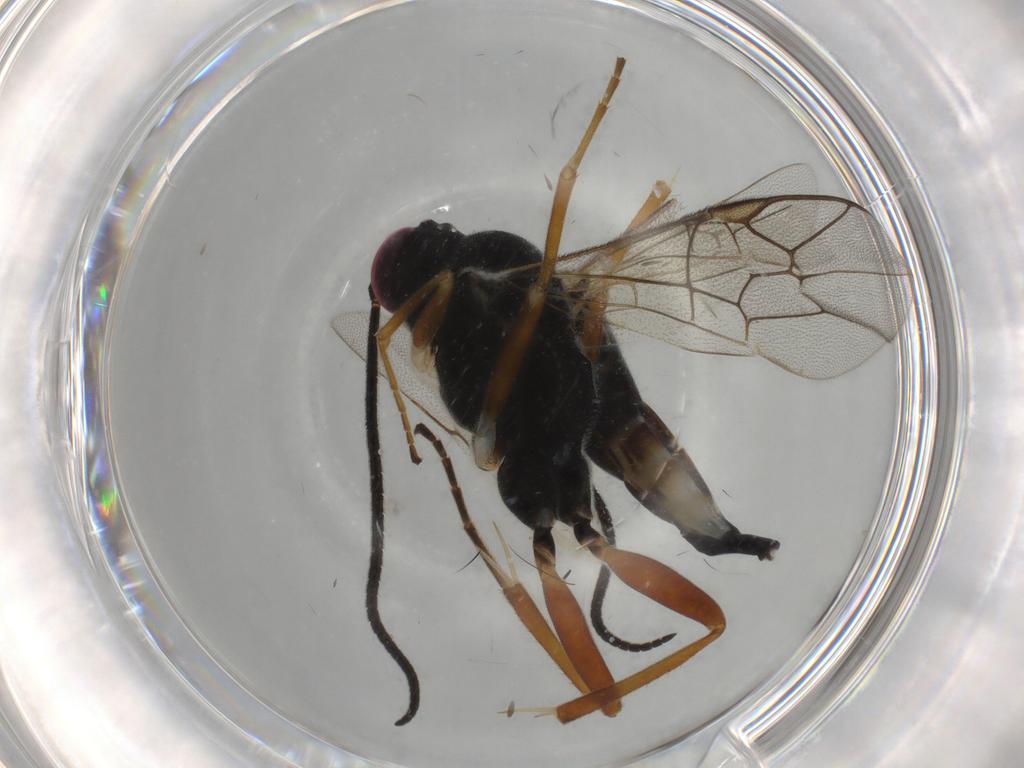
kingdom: Animalia
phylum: Arthropoda
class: Insecta
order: Hymenoptera
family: Ichneumonidae
